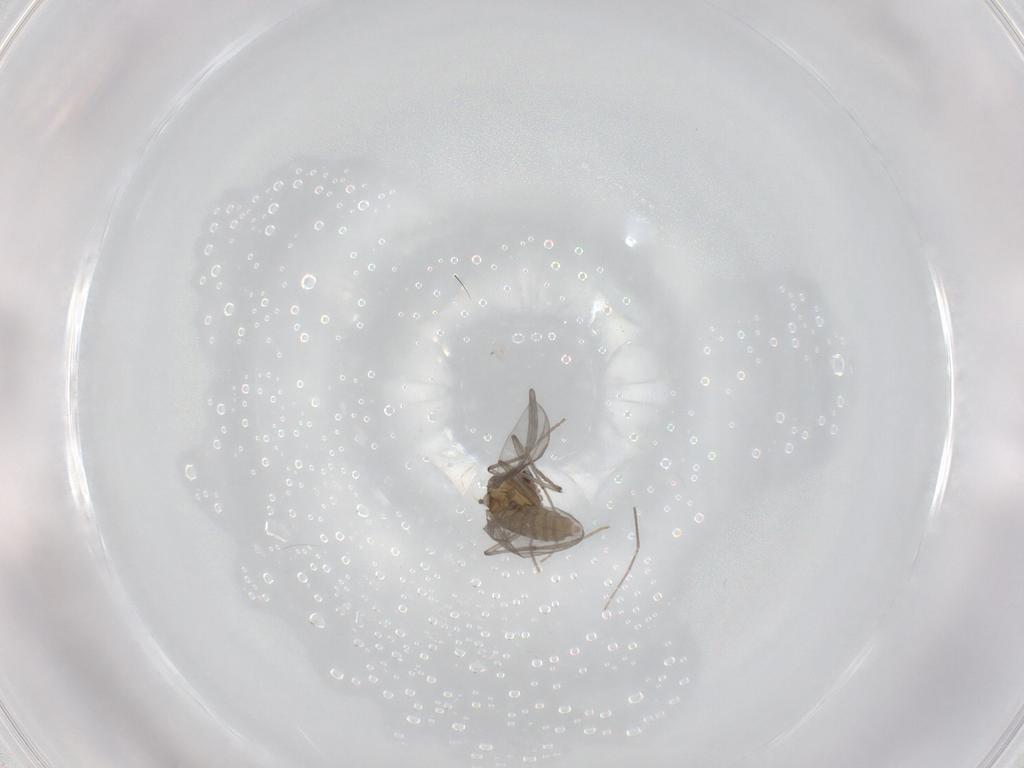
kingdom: Animalia
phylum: Arthropoda
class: Insecta
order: Diptera
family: Chironomidae
